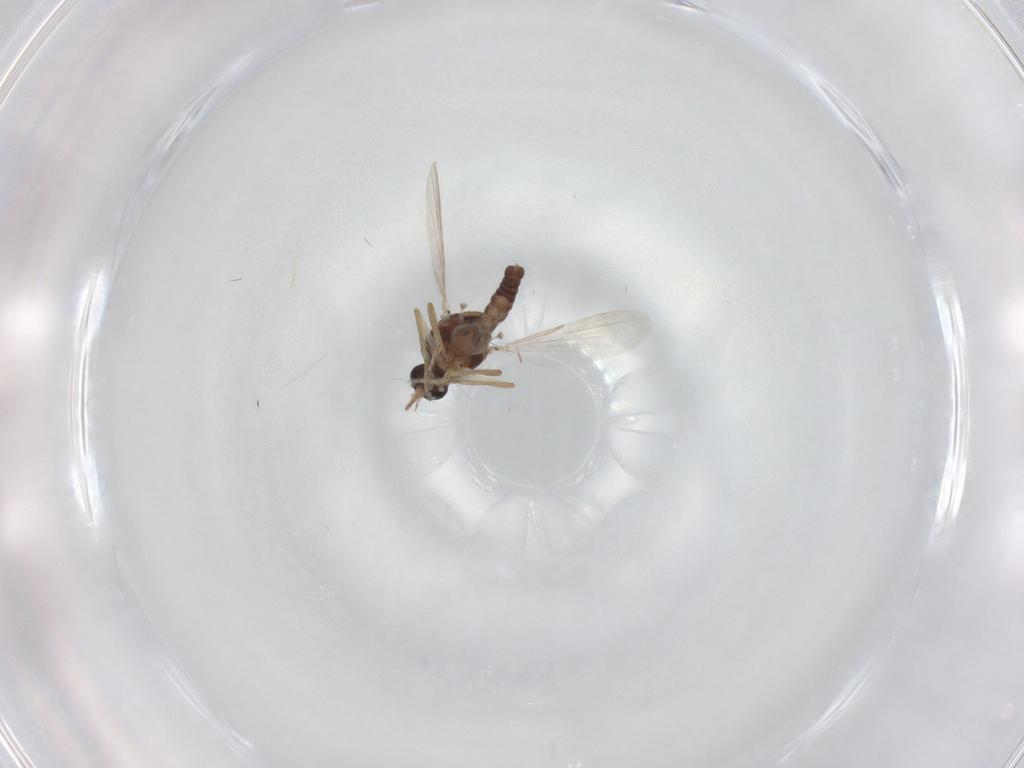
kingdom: Animalia
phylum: Arthropoda
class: Insecta
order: Diptera
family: Ceratopogonidae
